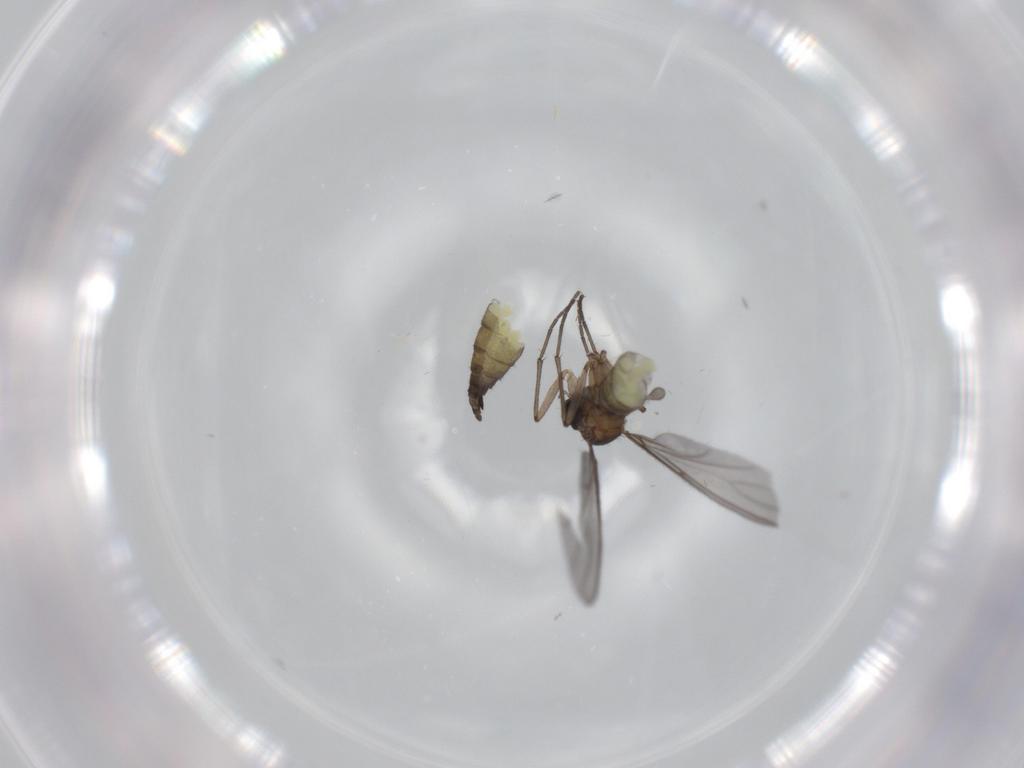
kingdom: Animalia
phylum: Arthropoda
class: Insecta
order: Diptera
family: Sciaridae
